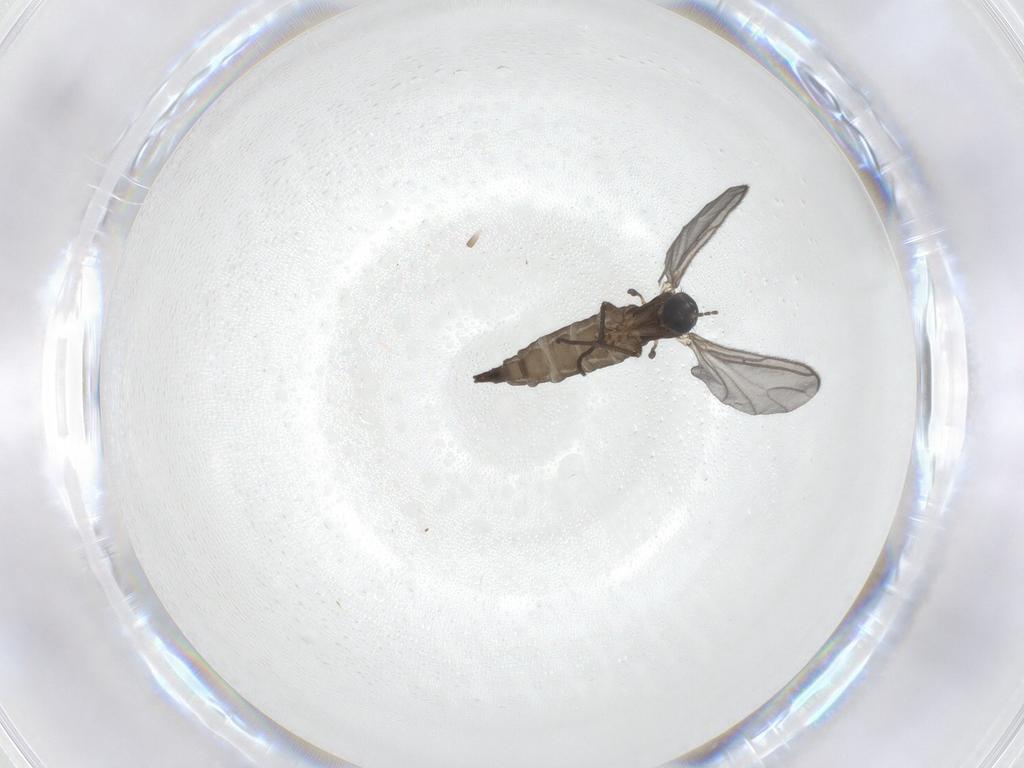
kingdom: Animalia
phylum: Arthropoda
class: Insecta
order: Diptera
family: Sciaridae
